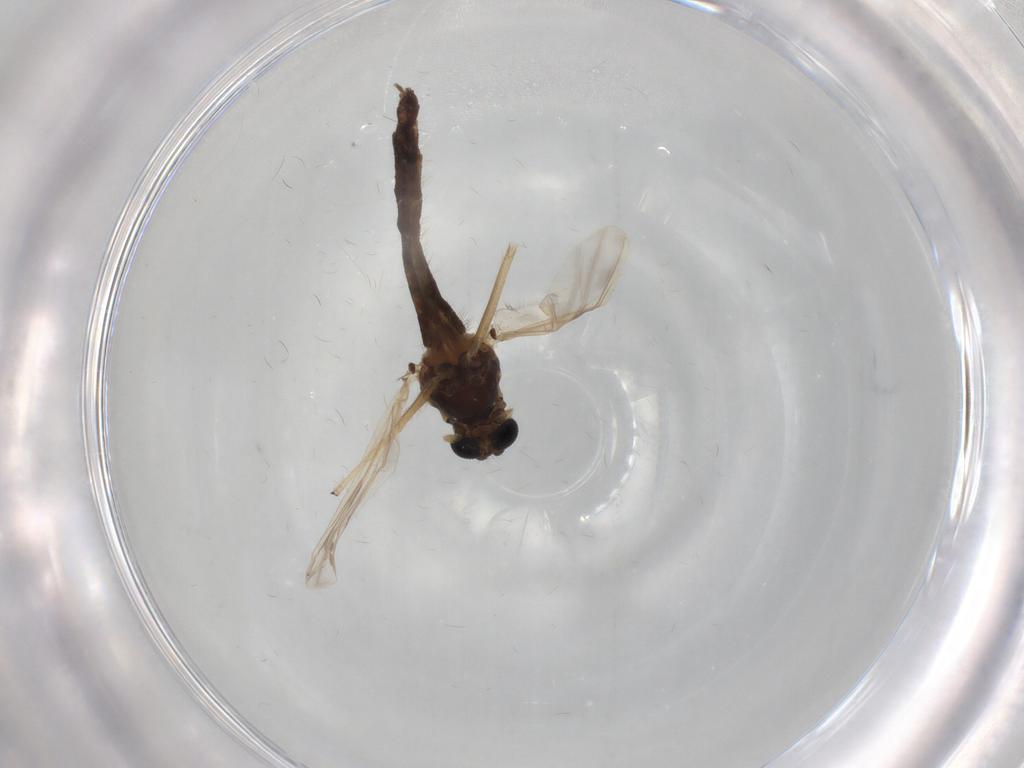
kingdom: Animalia
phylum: Arthropoda
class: Insecta
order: Diptera
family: Chironomidae
